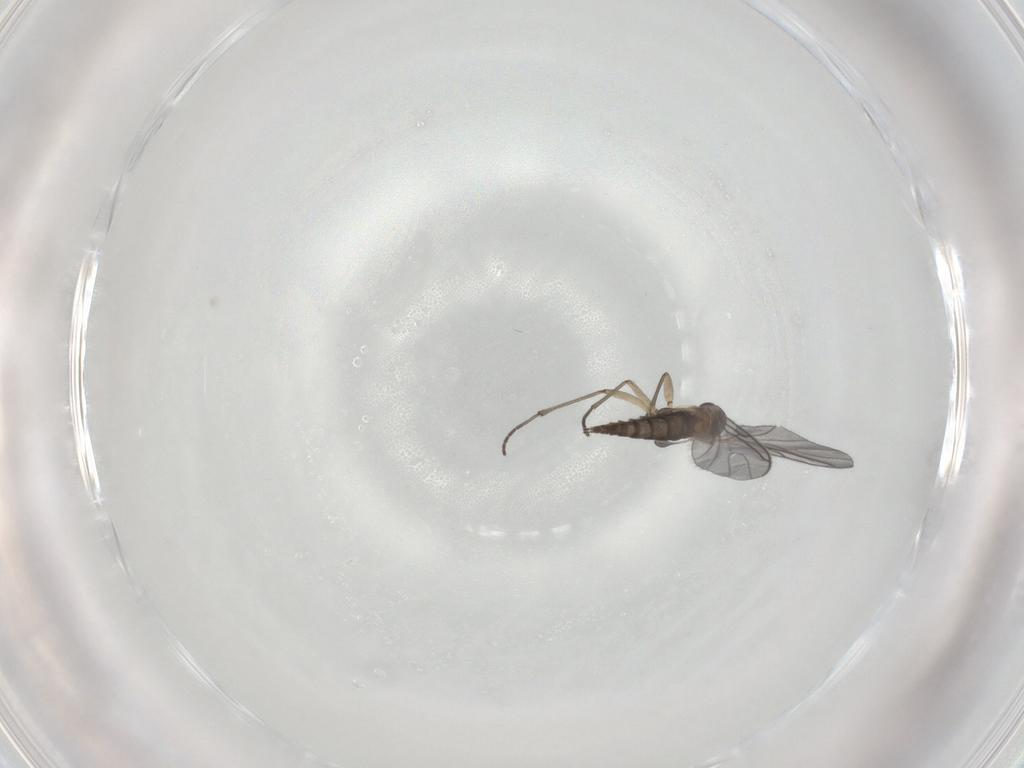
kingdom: Animalia
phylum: Arthropoda
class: Insecta
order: Diptera
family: Sciaridae
